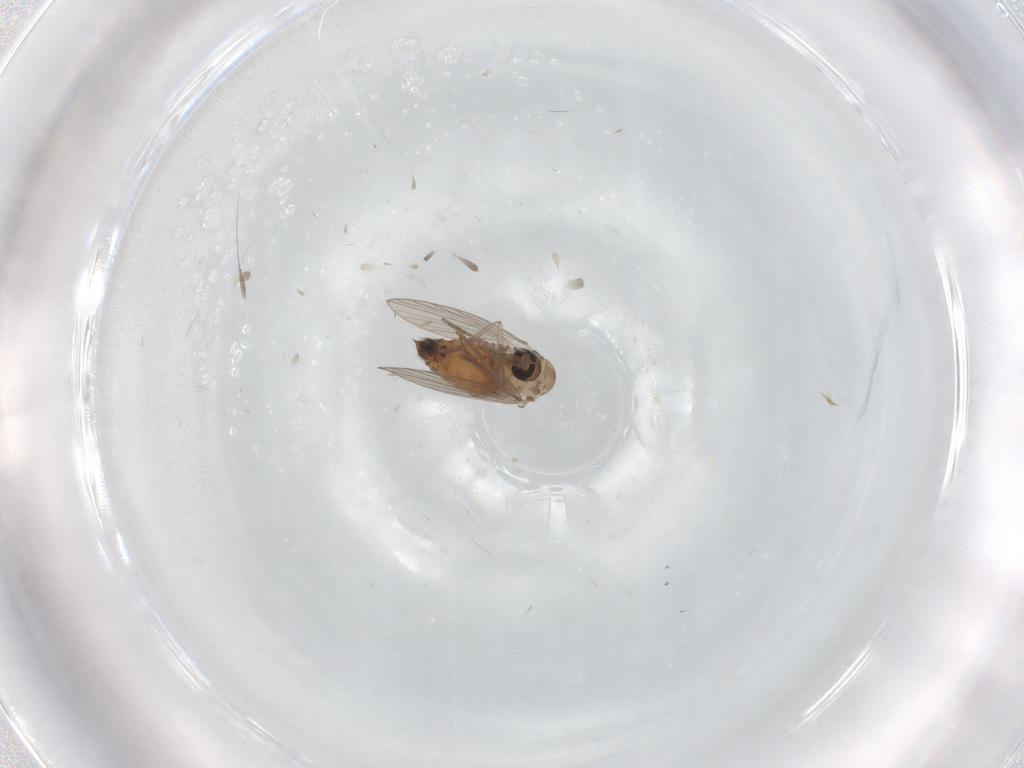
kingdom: Animalia
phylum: Arthropoda
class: Insecta
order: Diptera
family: Psychodidae
